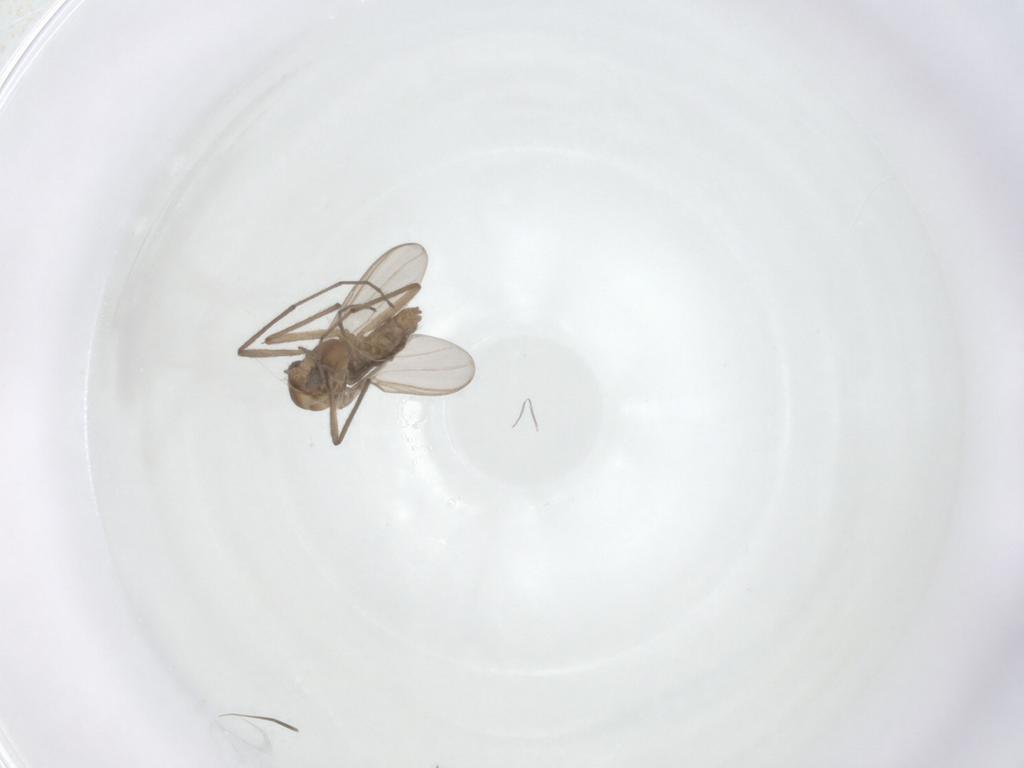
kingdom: Animalia
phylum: Arthropoda
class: Insecta
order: Diptera
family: Chironomidae
